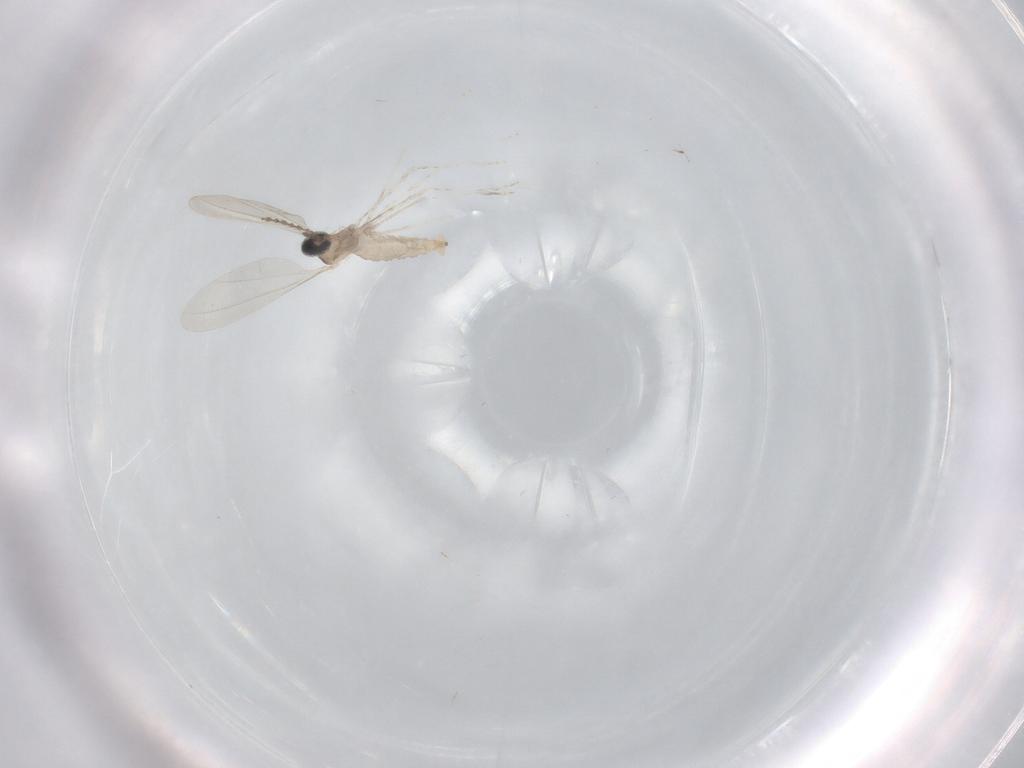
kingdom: Animalia
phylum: Arthropoda
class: Insecta
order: Diptera
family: Cecidomyiidae
